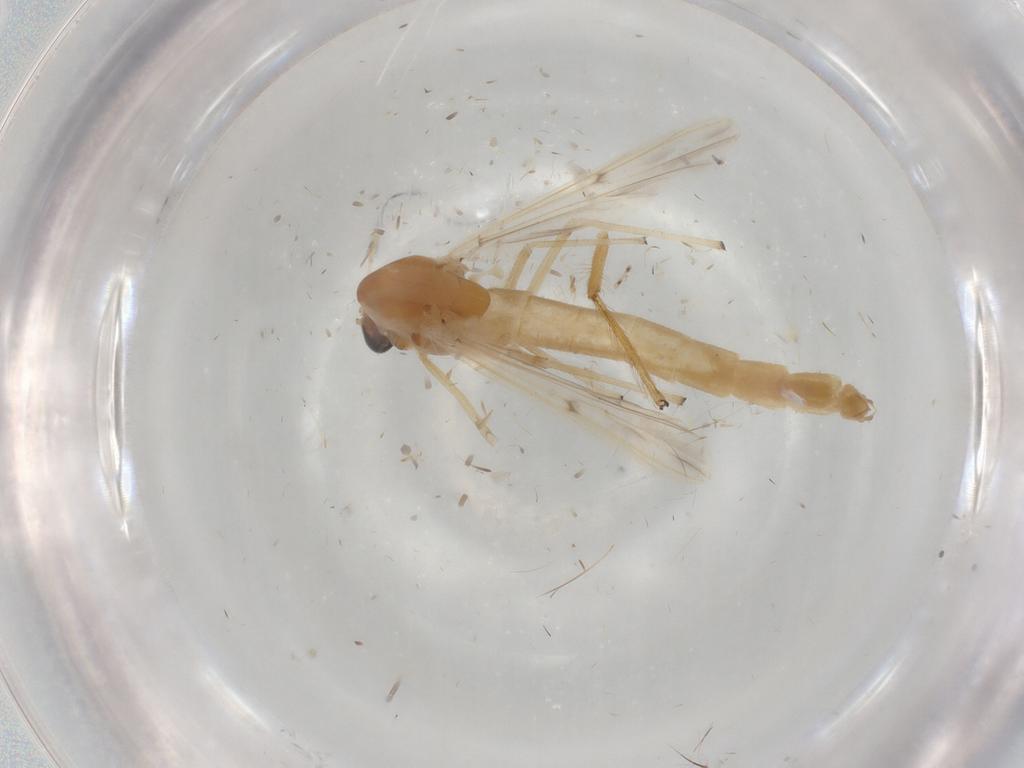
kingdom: Animalia
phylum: Arthropoda
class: Insecta
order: Diptera
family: Chironomidae
